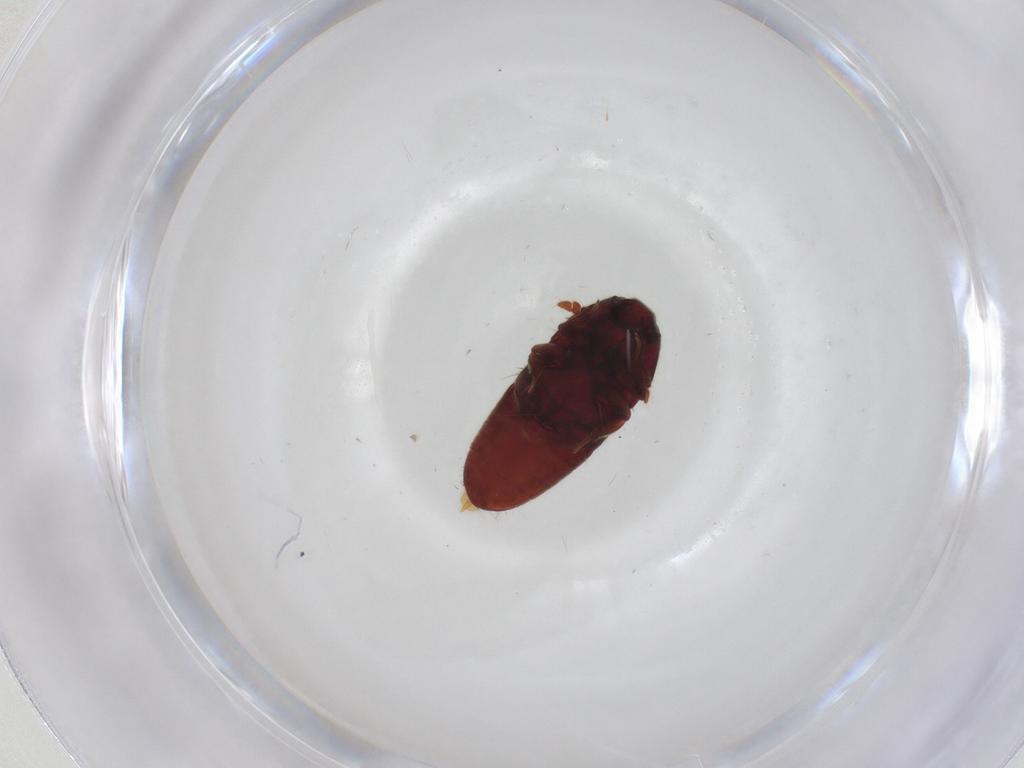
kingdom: Animalia
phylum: Arthropoda
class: Insecta
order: Coleoptera
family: Throscidae
